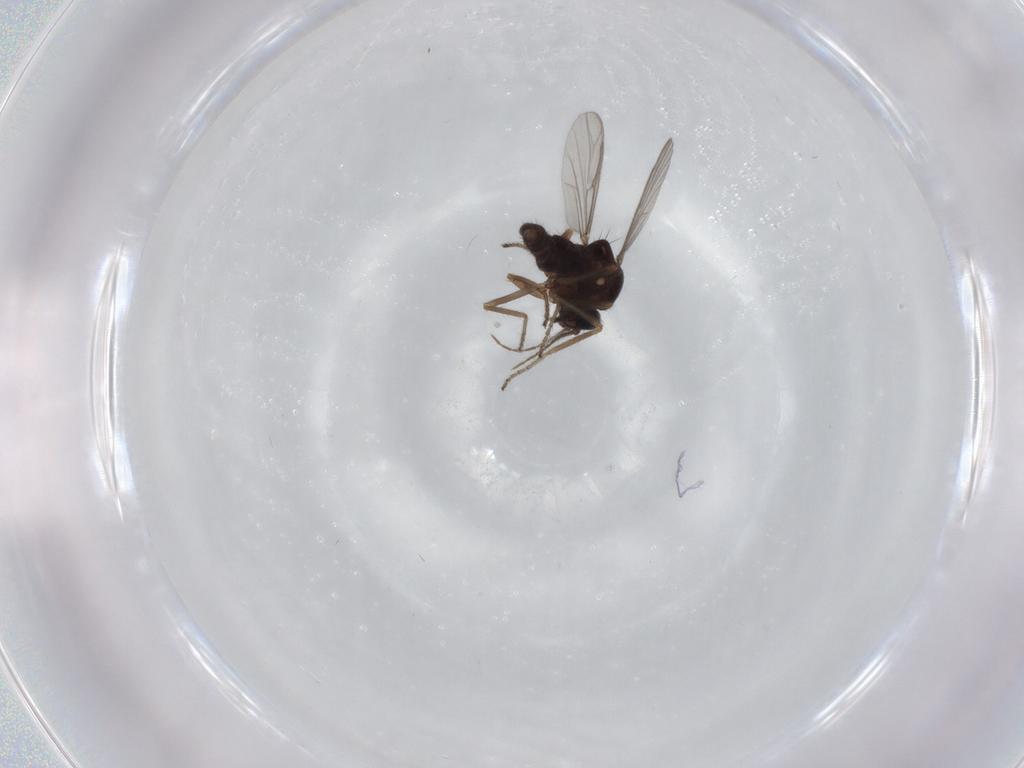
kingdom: Animalia
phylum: Arthropoda
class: Insecta
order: Diptera
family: Ceratopogonidae
